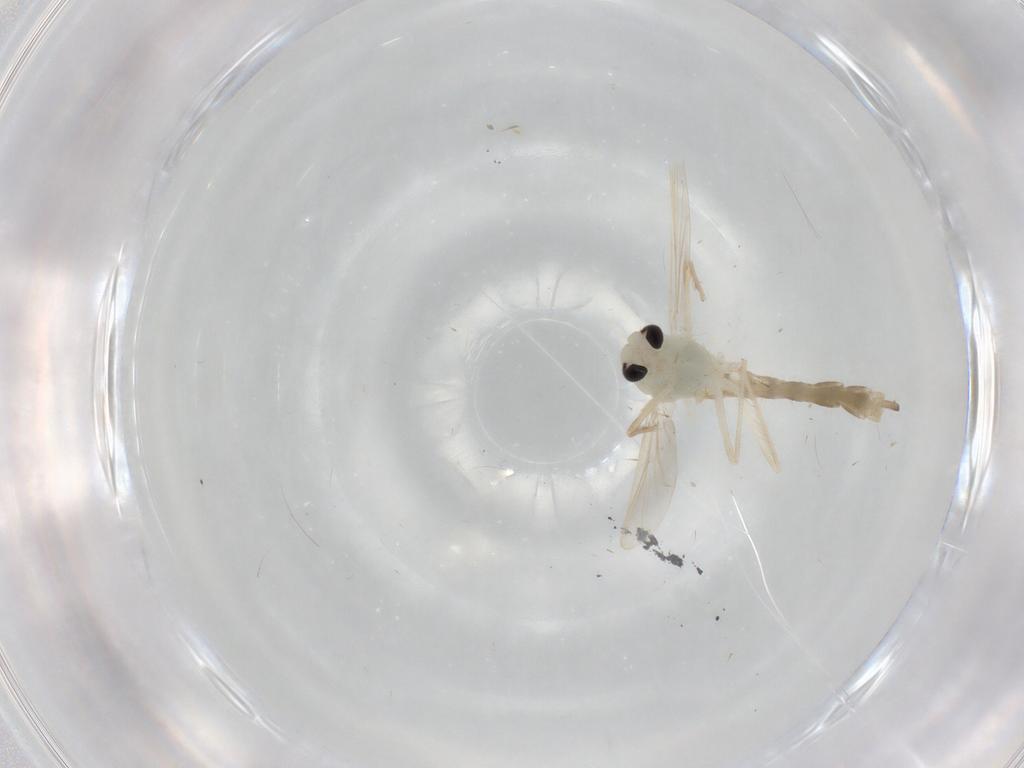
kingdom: Animalia
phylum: Arthropoda
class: Insecta
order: Diptera
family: Chironomidae
